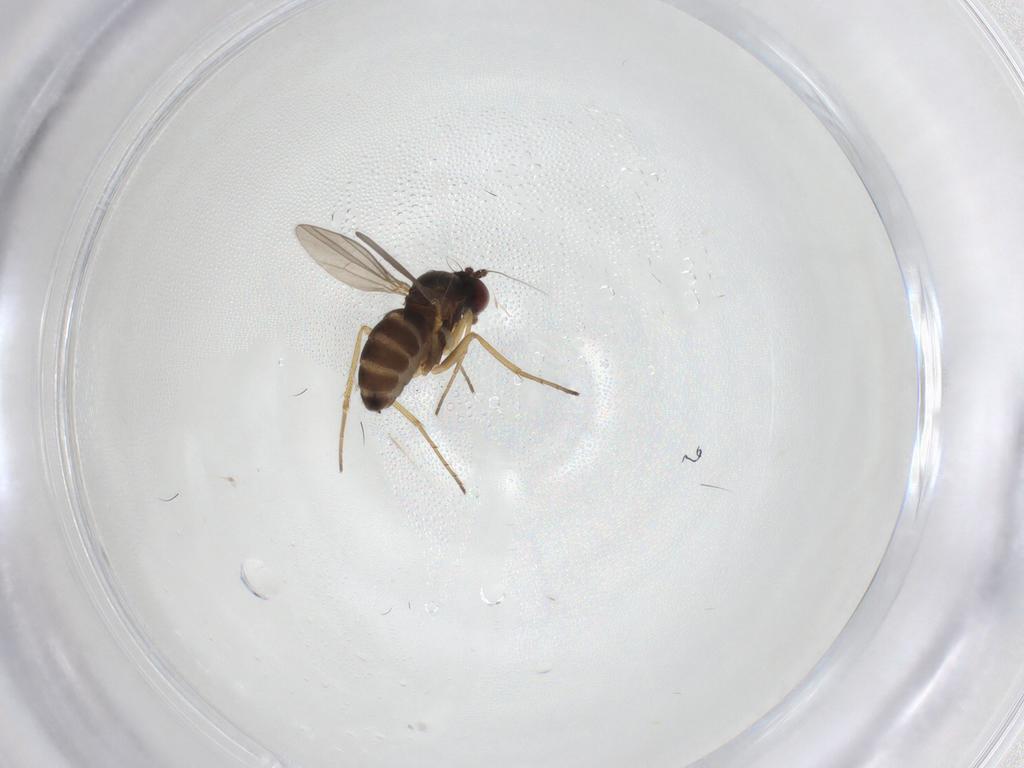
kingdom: Animalia
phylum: Arthropoda
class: Insecta
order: Diptera
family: Dolichopodidae
